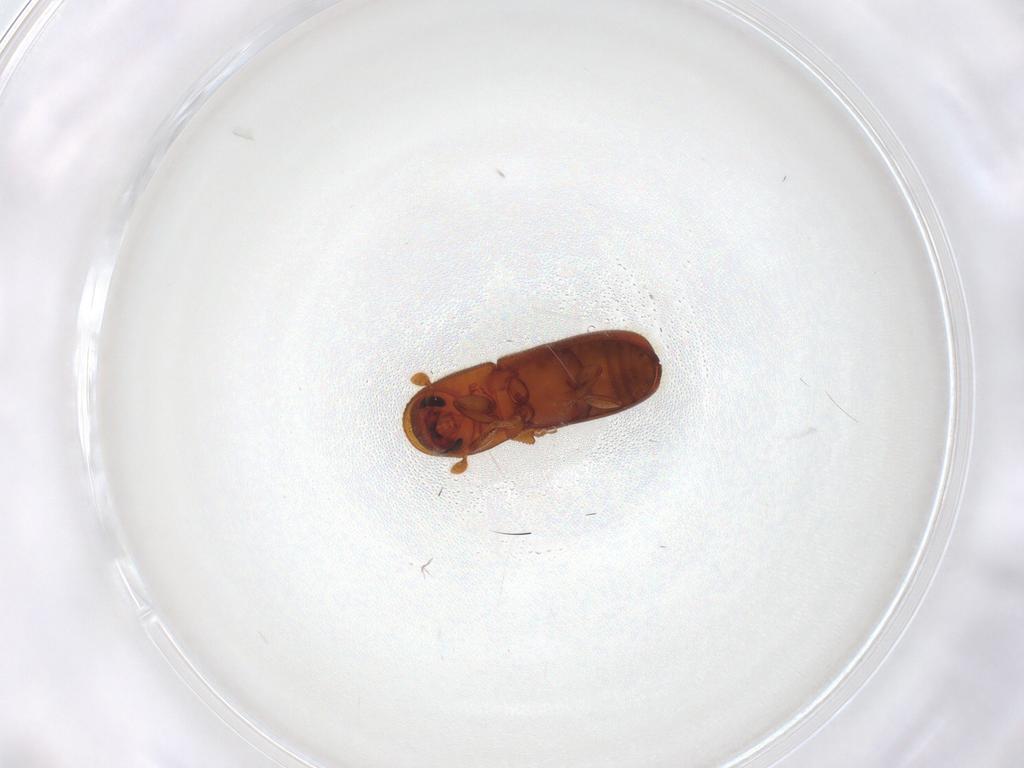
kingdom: Animalia
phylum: Arthropoda
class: Insecta
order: Coleoptera
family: Curculionidae
